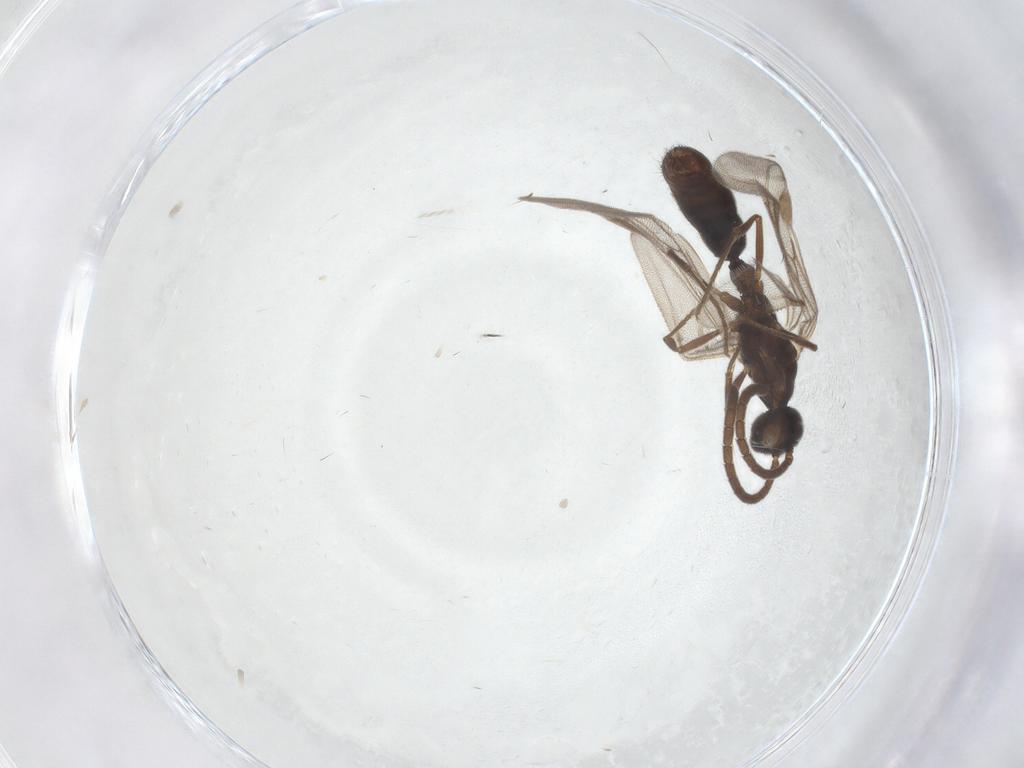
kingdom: Animalia
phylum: Arthropoda
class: Insecta
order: Hymenoptera
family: Formicidae
